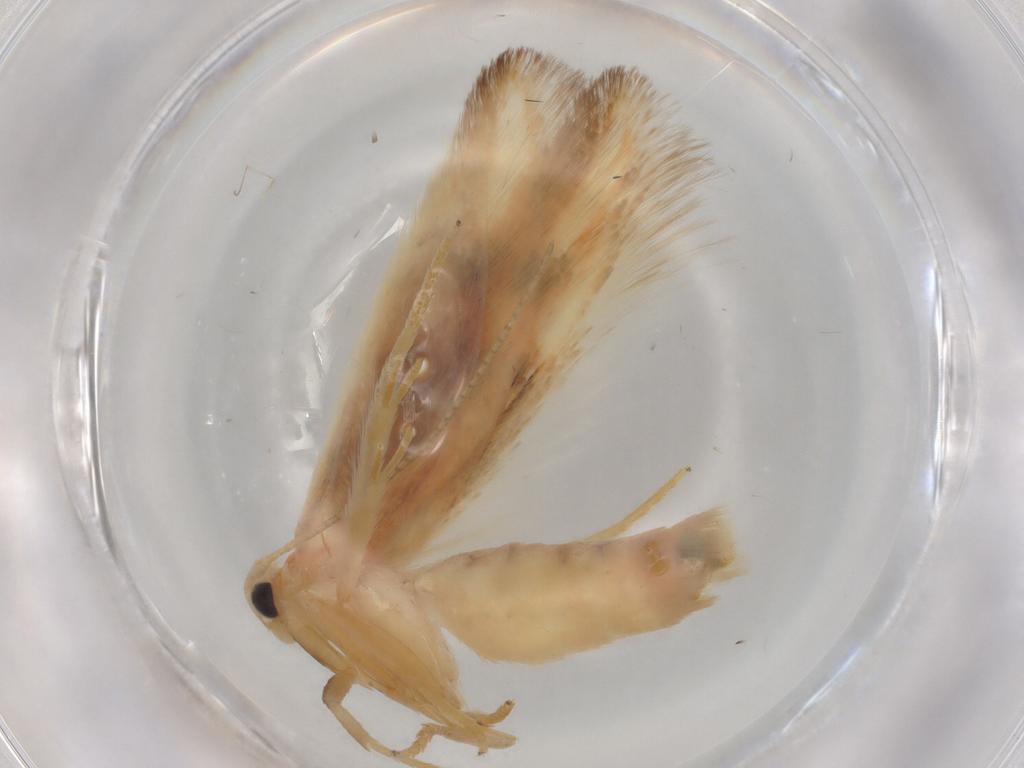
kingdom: Animalia
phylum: Arthropoda
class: Insecta
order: Lepidoptera
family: Geometridae
